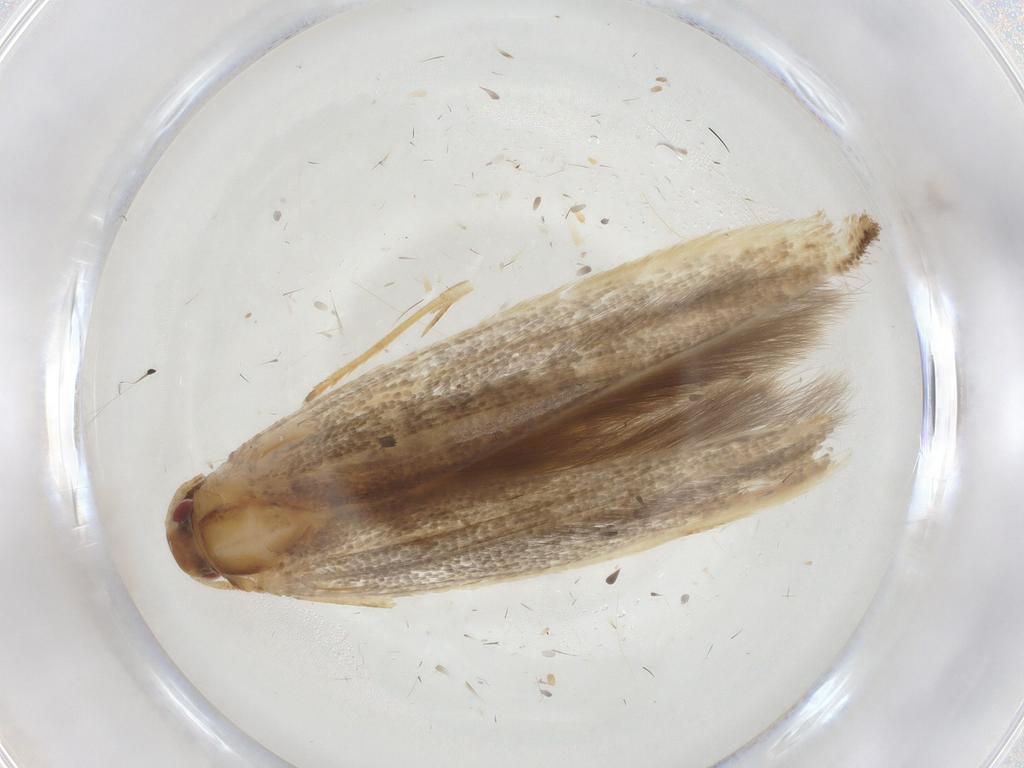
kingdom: Animalia
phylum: Arthropoda
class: Insecta
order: Lepidoptera
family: Cosmopterigidae
